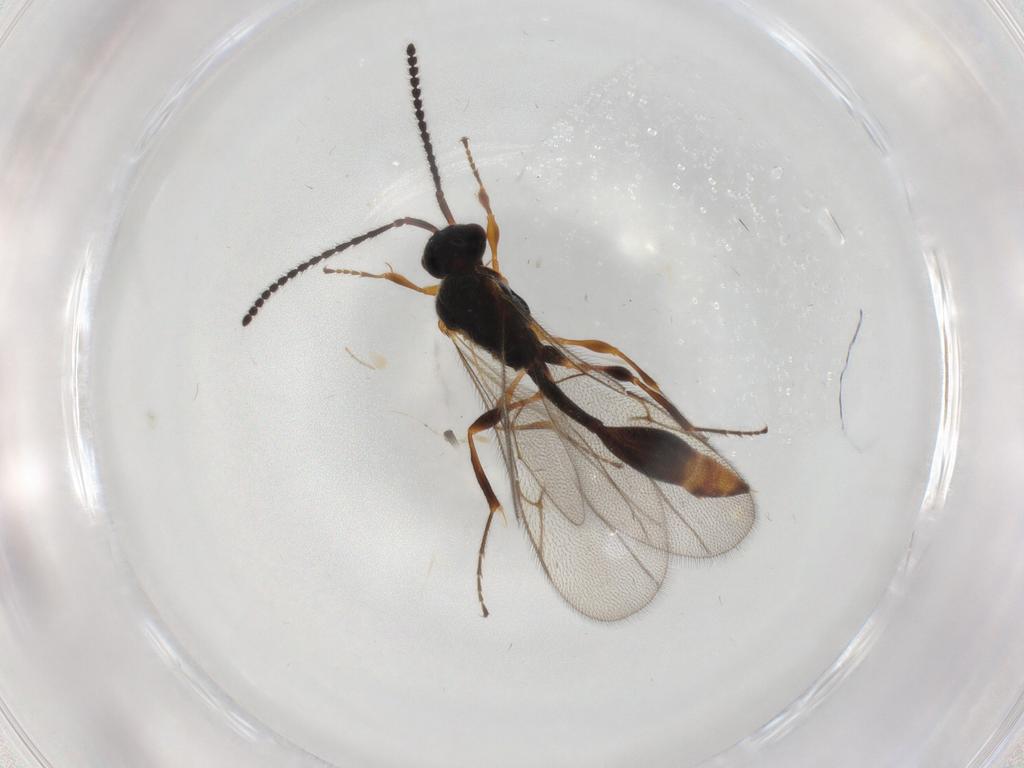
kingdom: Animalia
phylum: Arthropoda
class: Insecta
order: Hymenoptera
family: Diapriidae
